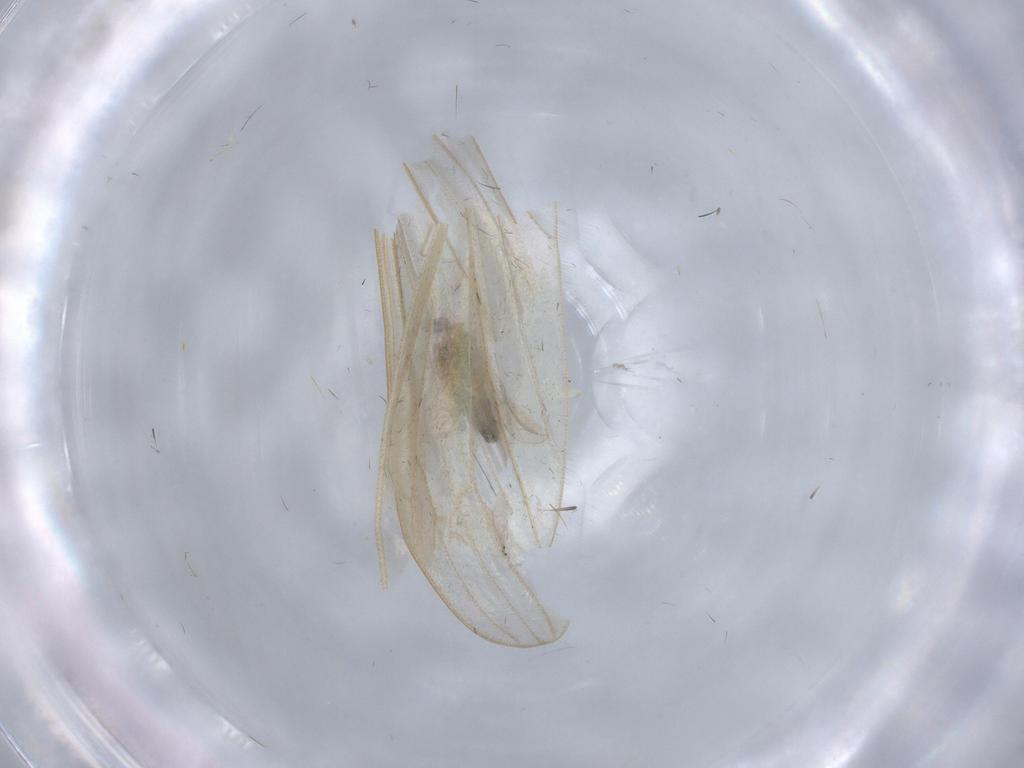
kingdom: Animalia
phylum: Arthropoda
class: Insecta
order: Diptera
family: Chironomidae
